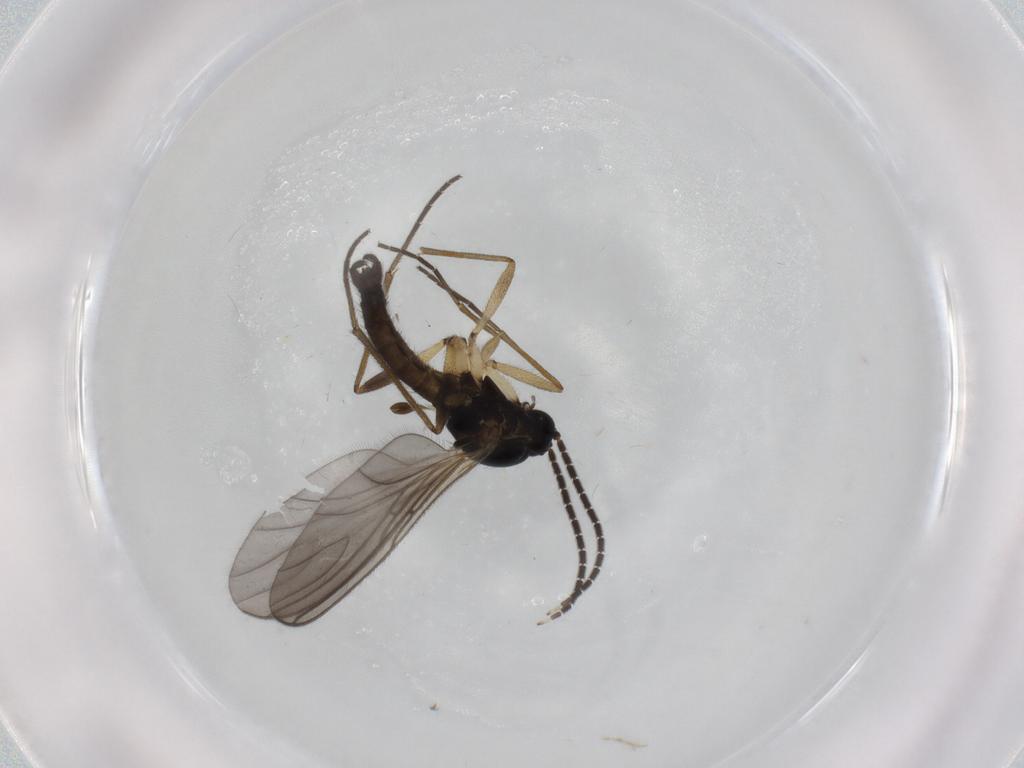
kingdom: Animalia
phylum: Arthropoda
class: Insecta
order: Diptera
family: Sciaridae
